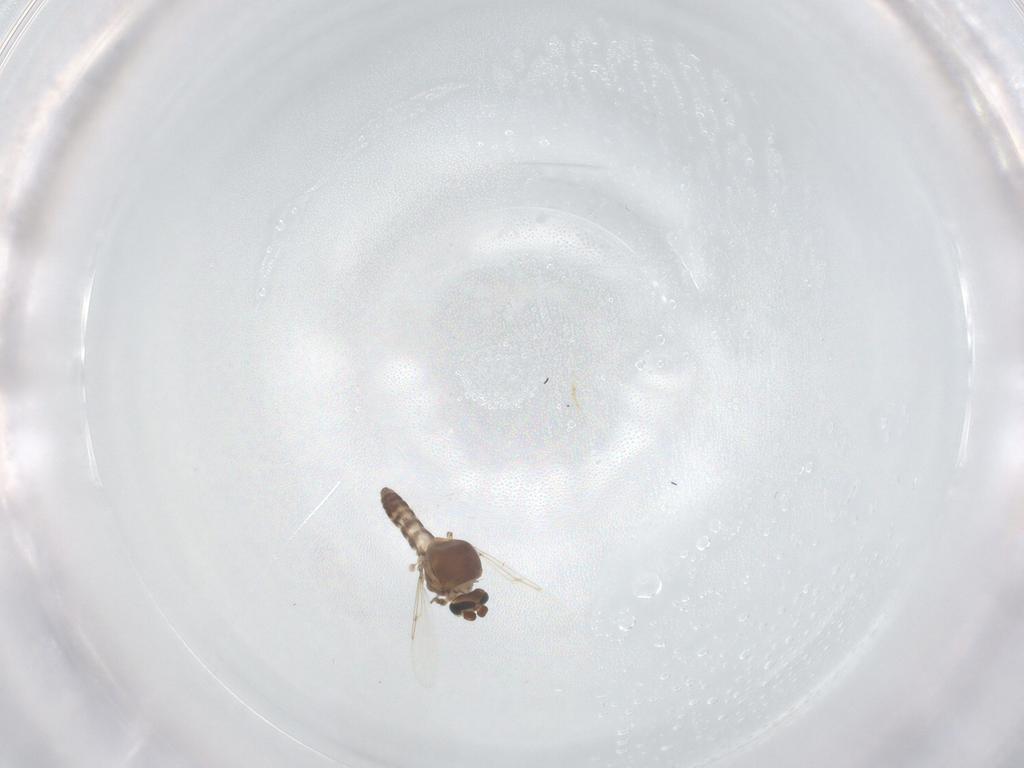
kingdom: Animalia
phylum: Arthropoda
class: Insecta
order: Diptera
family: Ceratopogonidae
